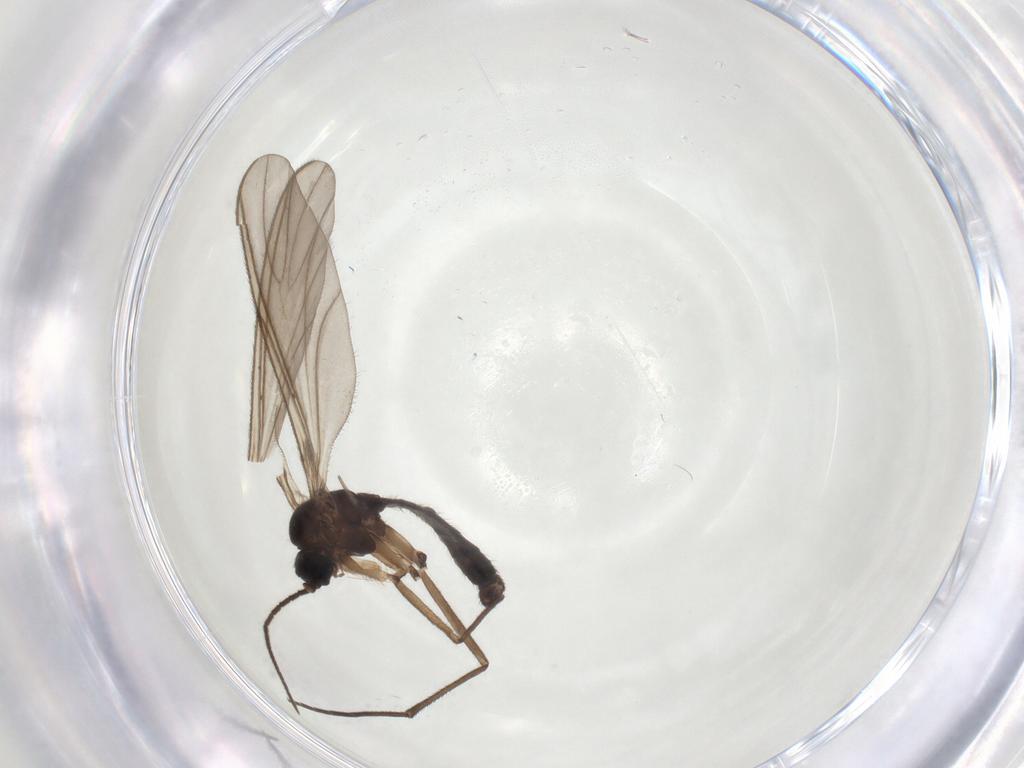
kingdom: Animalia
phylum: Arthropoda
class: Insecta
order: Diptera
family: Sciaridae
